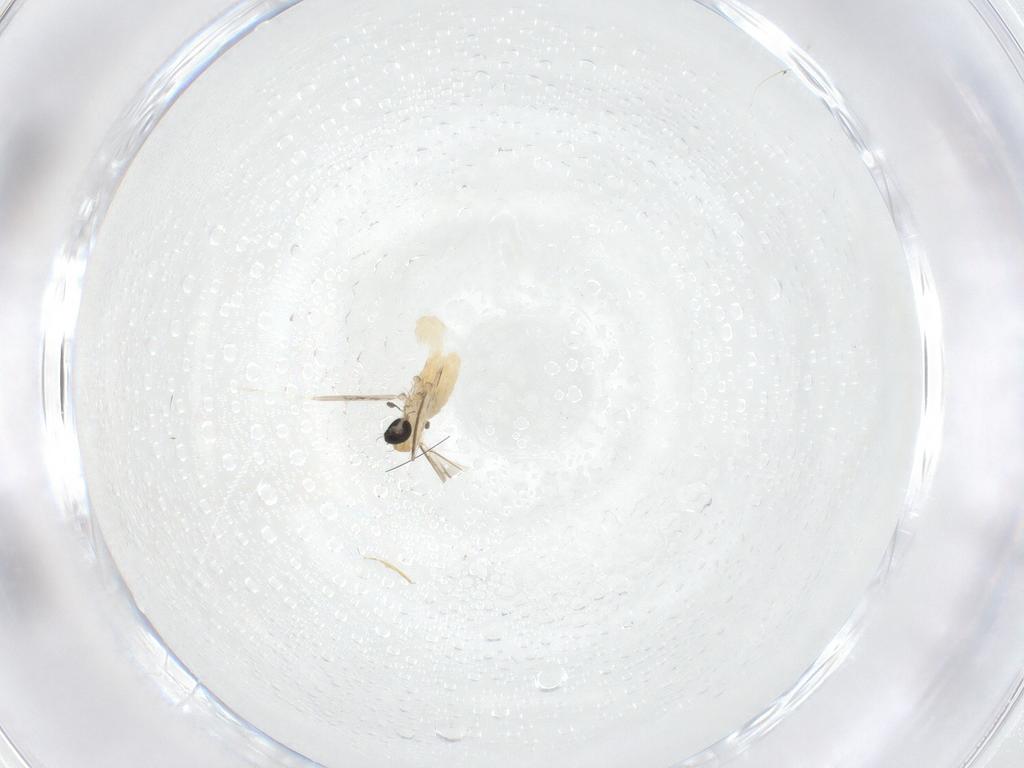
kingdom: Animalia
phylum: Arthropoda
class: Insecta
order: Diptera
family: Cecidomyiidae
